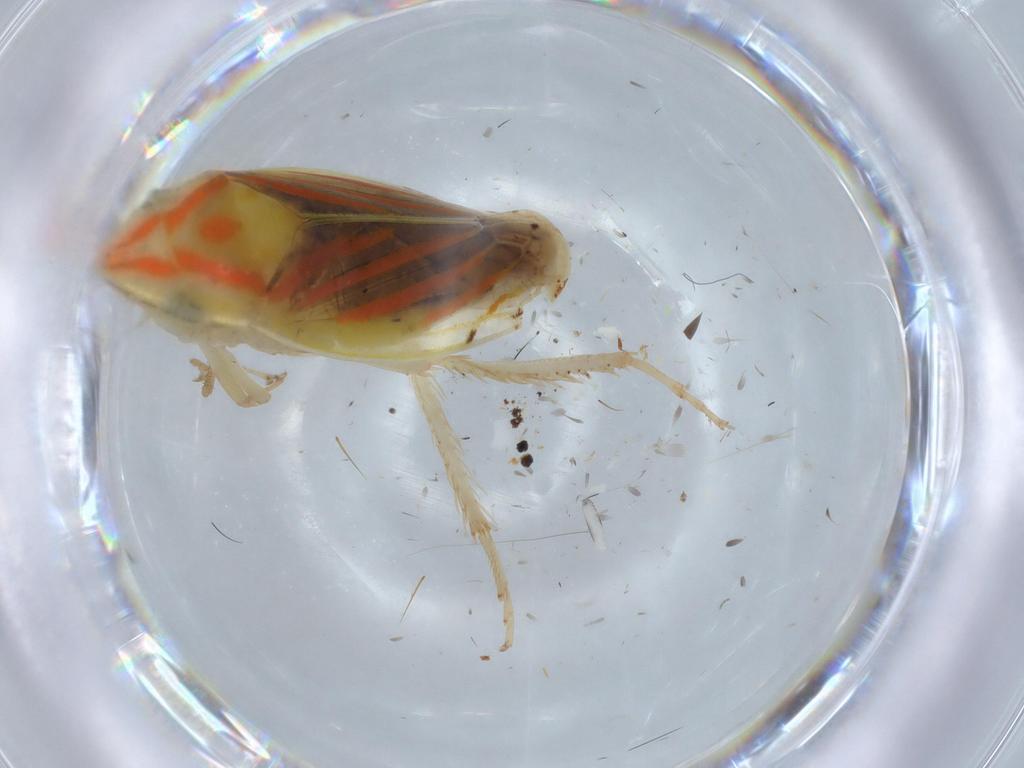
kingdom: Animalia
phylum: Arthropoda
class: Insecta
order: Hemiptera
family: Cicadellidae
